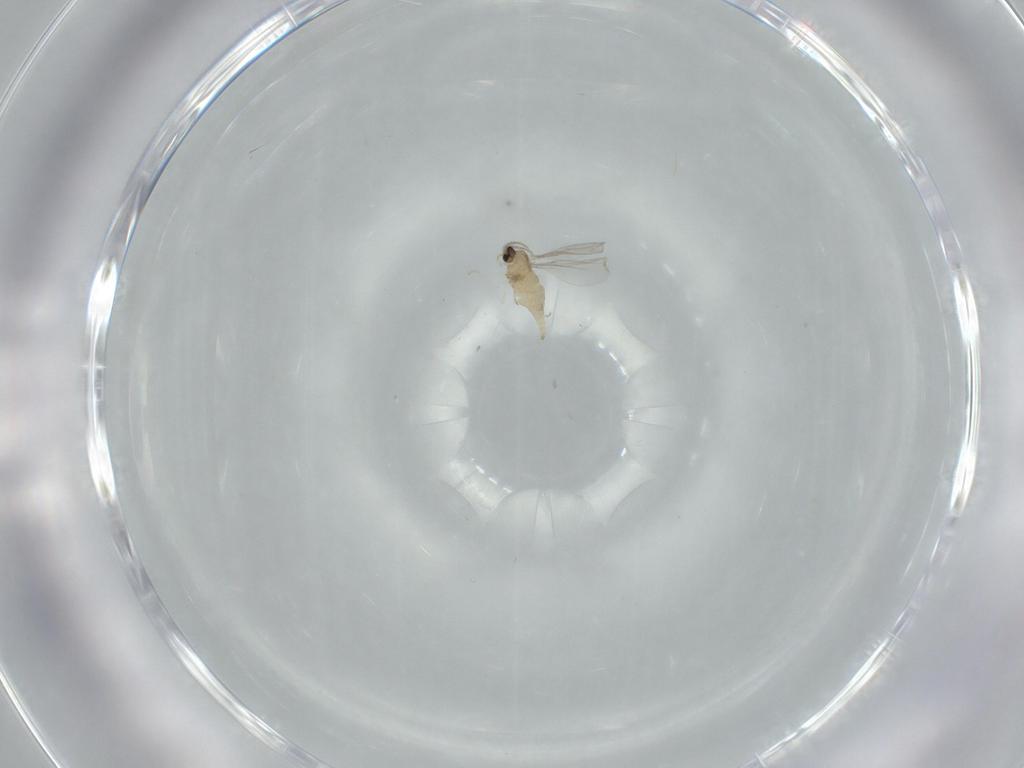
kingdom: Animalia
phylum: Arthropoda
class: Insecta
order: Diptera
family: Cecidomyiidae
